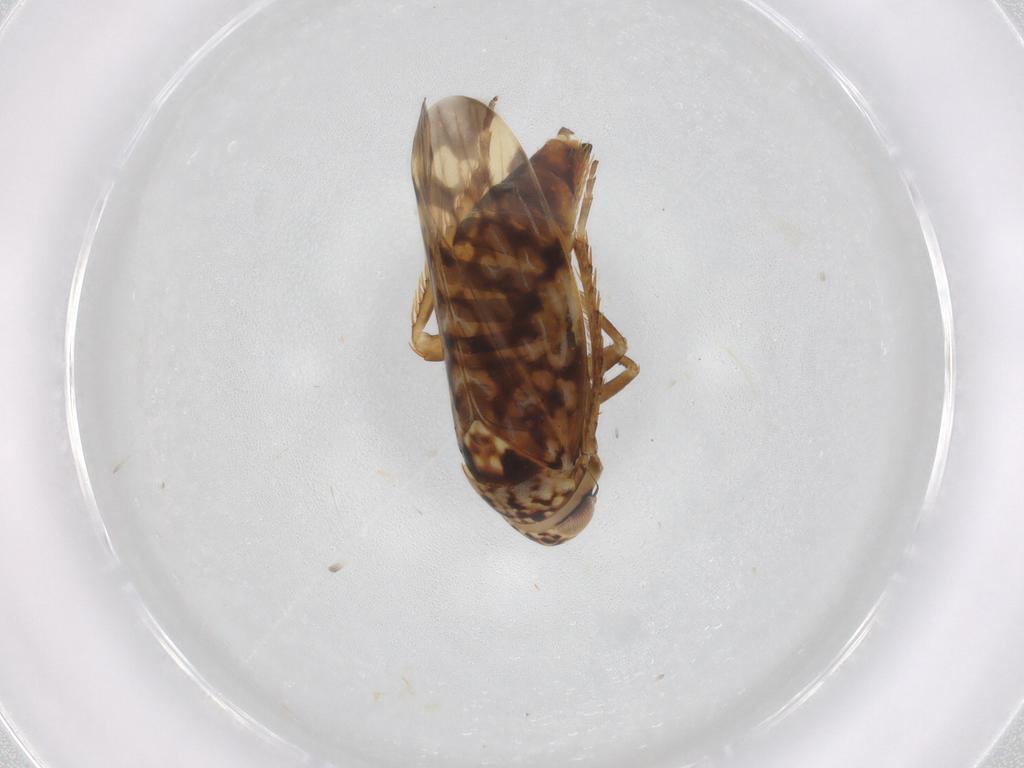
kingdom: Animalia
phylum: Arthropoda
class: Insecta
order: Hemiptera
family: Cicadellidae
